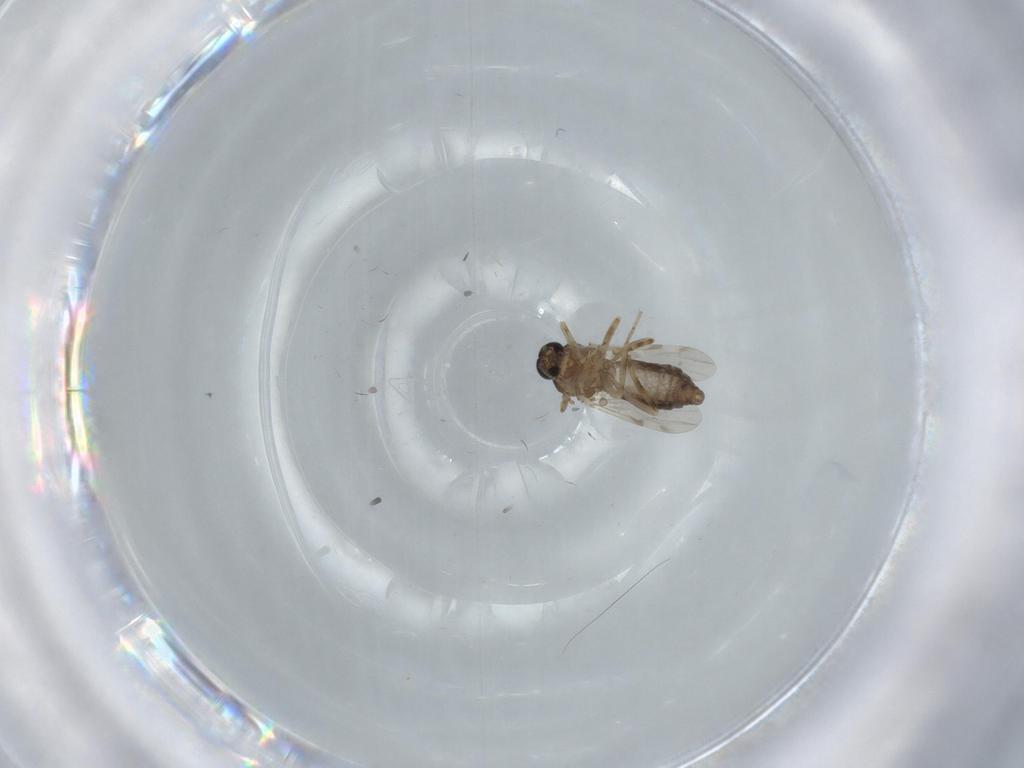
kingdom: Animalia
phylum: Arthropoda
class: Insecta
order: Diptera
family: Ceratopogonidae
